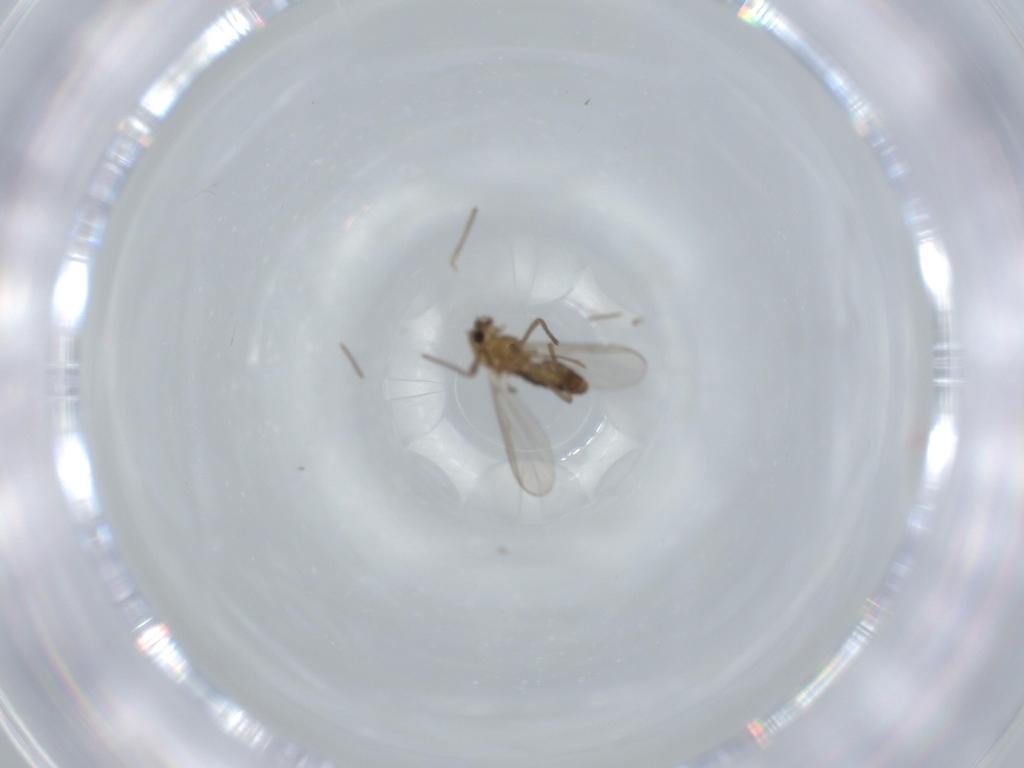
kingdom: Animalia
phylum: Arthropoda
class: Insecta
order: Diptera
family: Chironomidae
